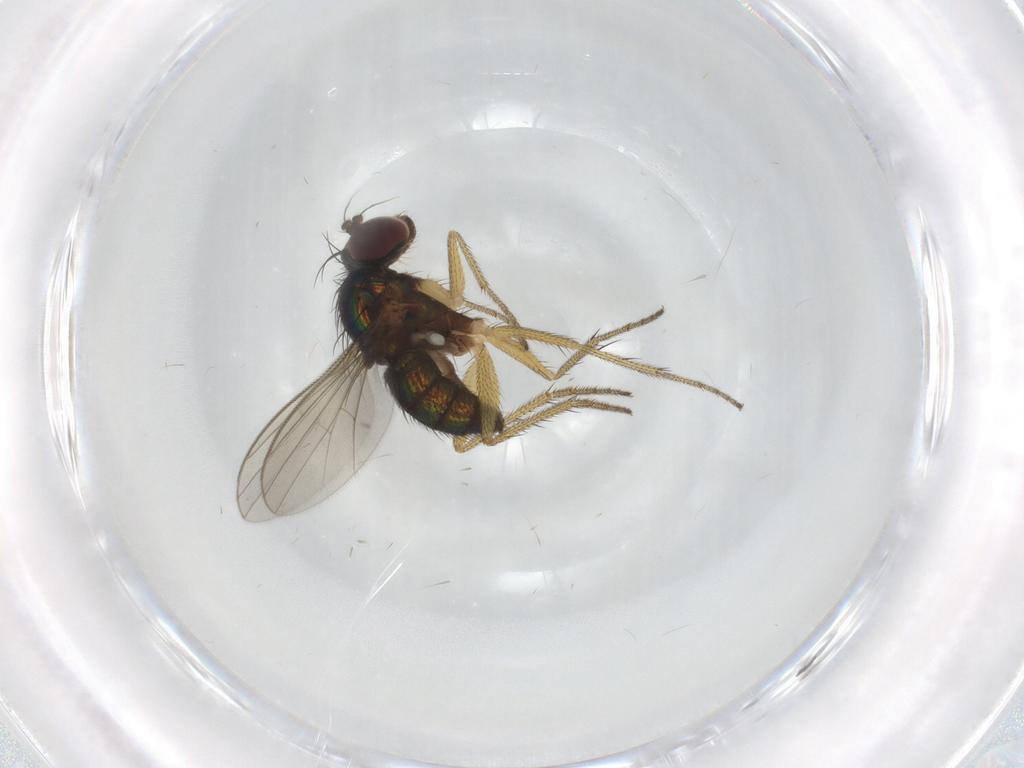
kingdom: Animalia
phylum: Arthropoda
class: Insecta
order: Diptera
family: Dolichopodidae
